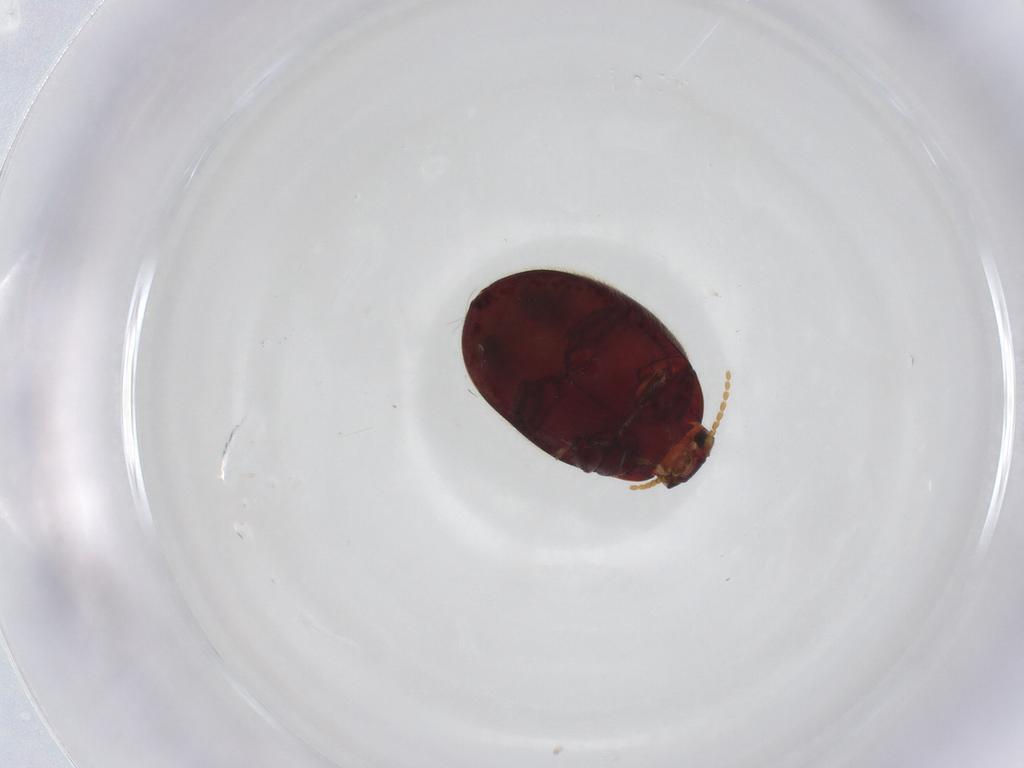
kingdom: Animalia
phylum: Arthropoda
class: Insecta
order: Coleoptera
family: Limnichidae
